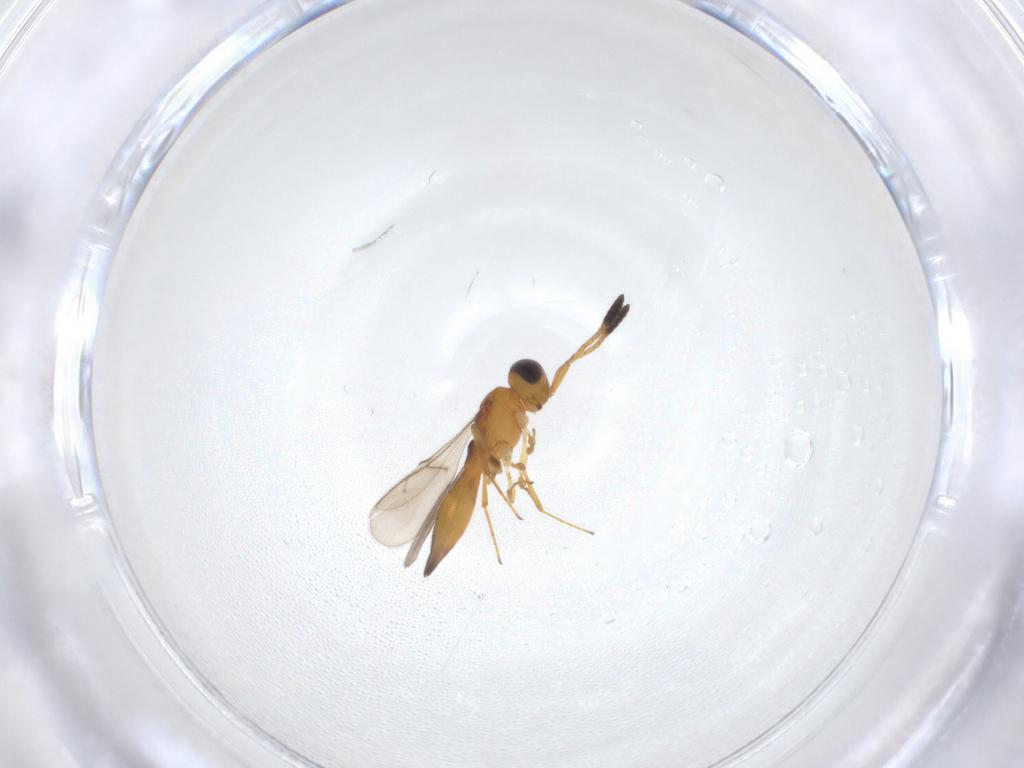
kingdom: Animalia
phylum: Arthropoda
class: Insecta
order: Hymenoptera
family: Scelionidae
